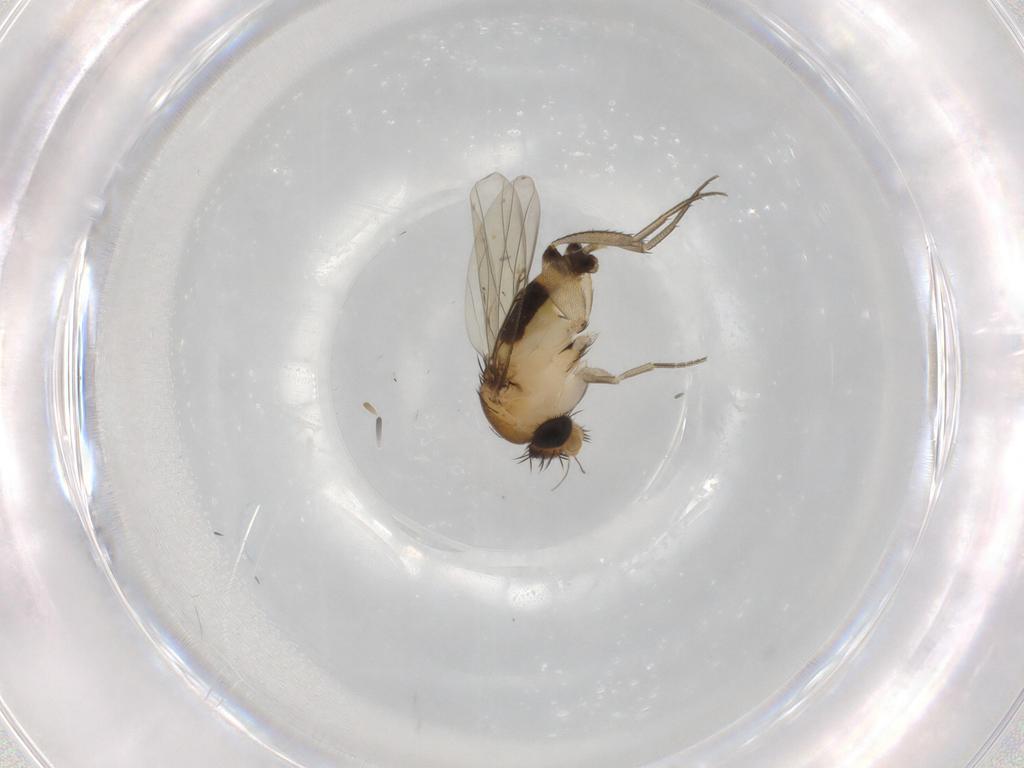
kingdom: Animalia
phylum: Arthropoda
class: Insecta
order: Diptera
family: Phoridae
